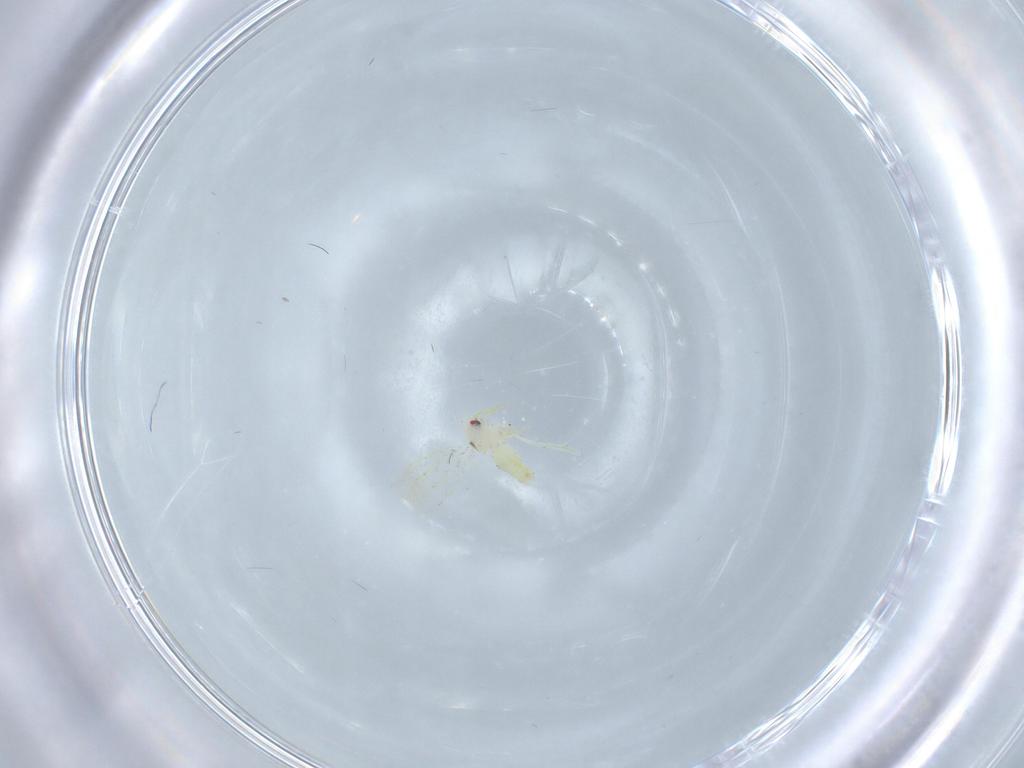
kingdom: Animalia
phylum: Arthropoda
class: Insecta
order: Hemiptera
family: Aleyrodidae
